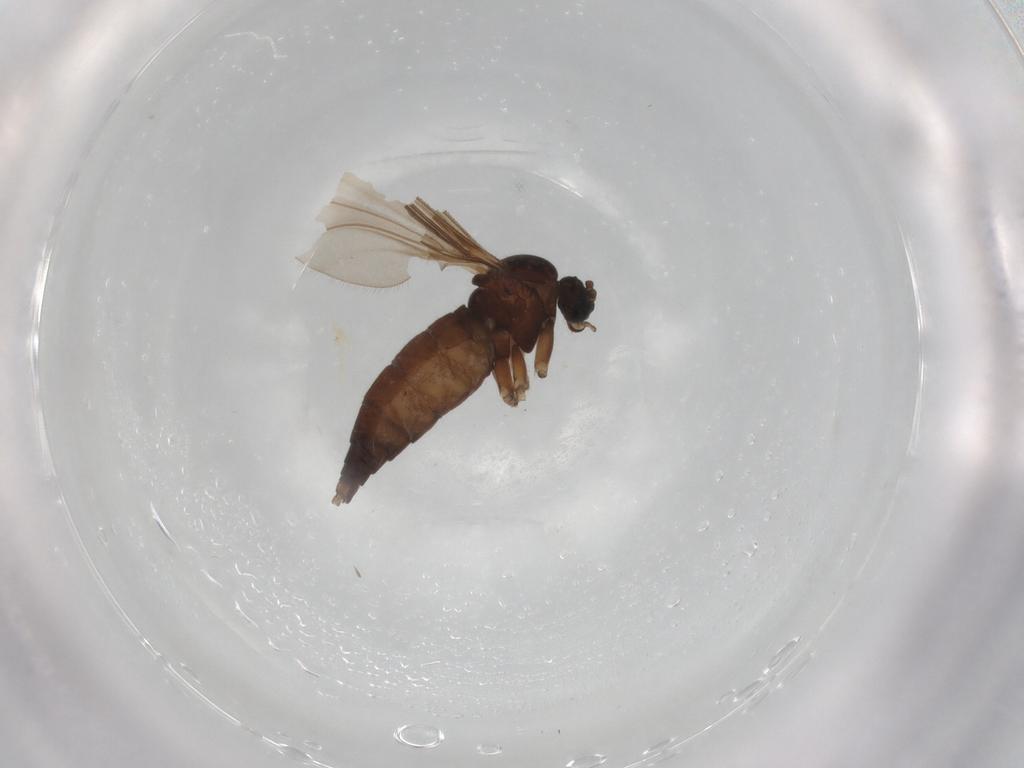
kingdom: Animalia
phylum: Arthropoda
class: Insecta
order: Diptera
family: Sciaridae
